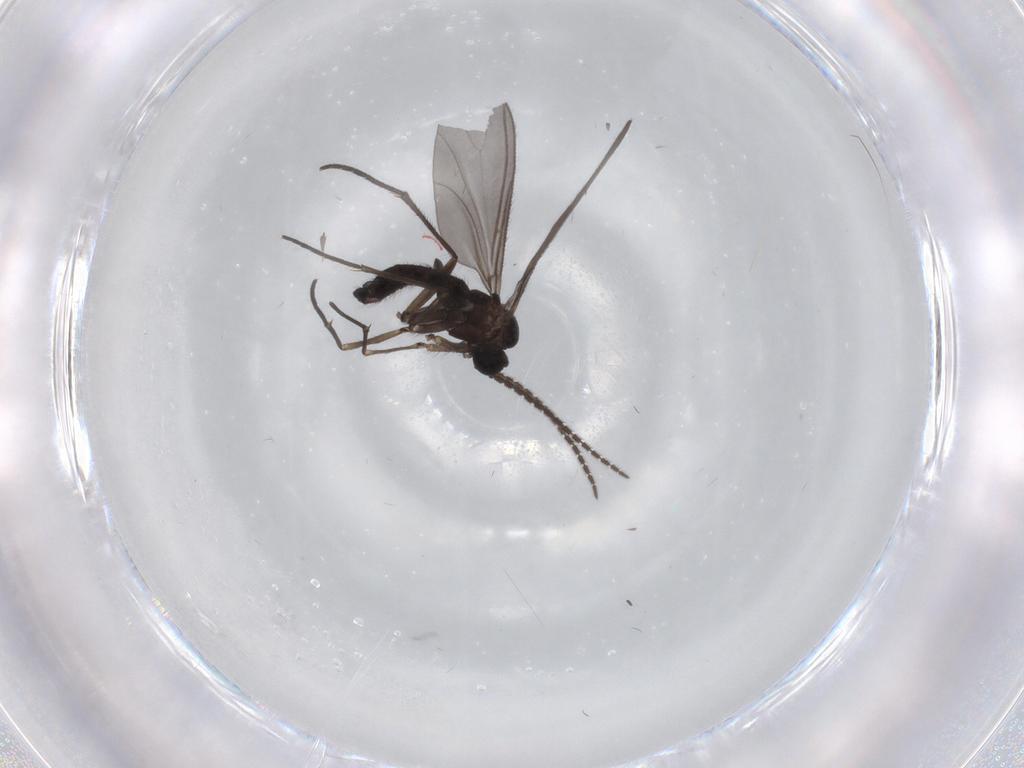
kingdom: Animalia
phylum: Arthropoda
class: Insecta
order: Diptera
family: Sciaridae
